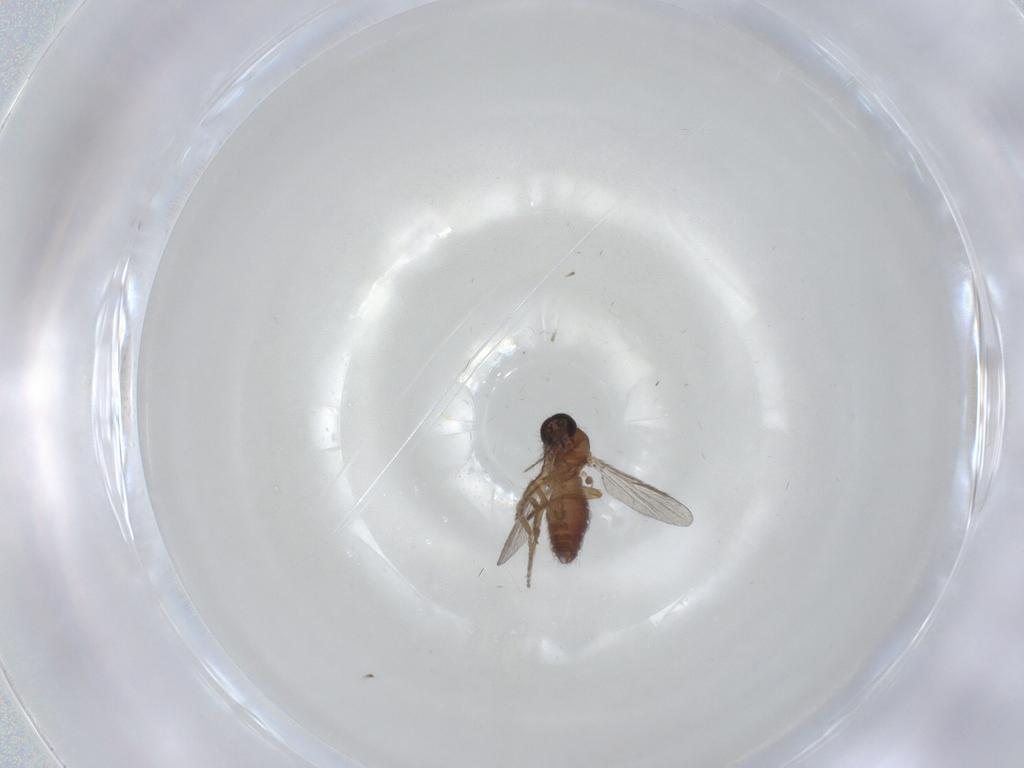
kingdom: Animalia
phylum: Arthropoda
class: Insecta
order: Diptera
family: Ceratopogonidae
